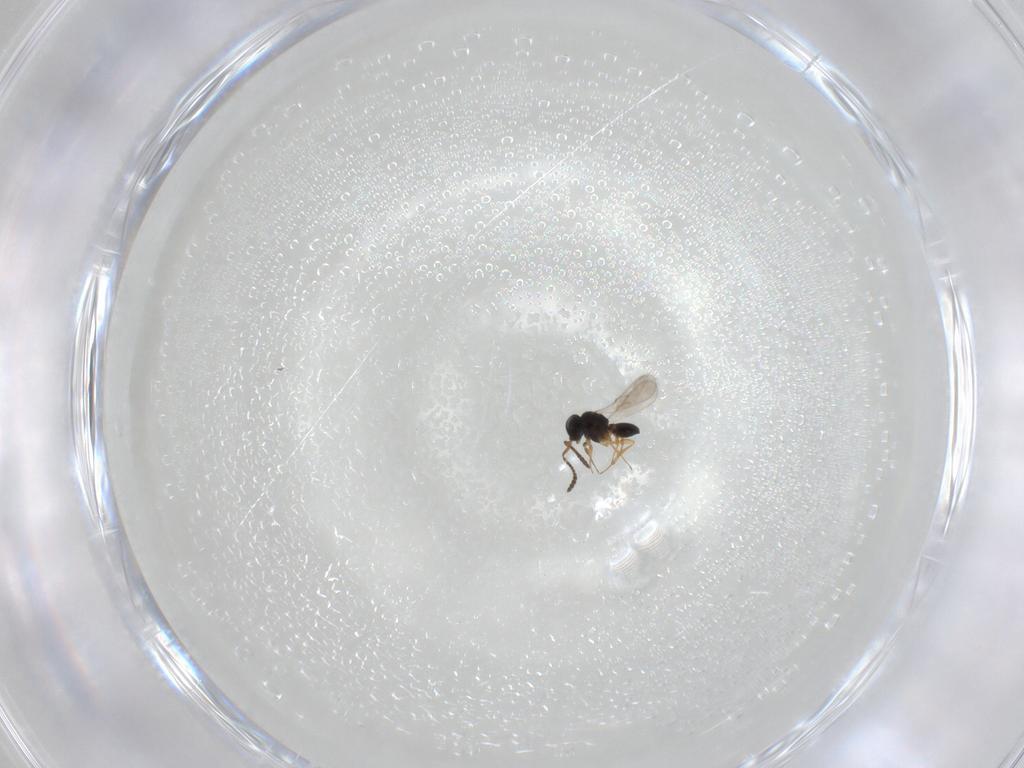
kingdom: Animalia
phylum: Arthropoda
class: Insecta
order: Hymenoptera
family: Scelionidae
